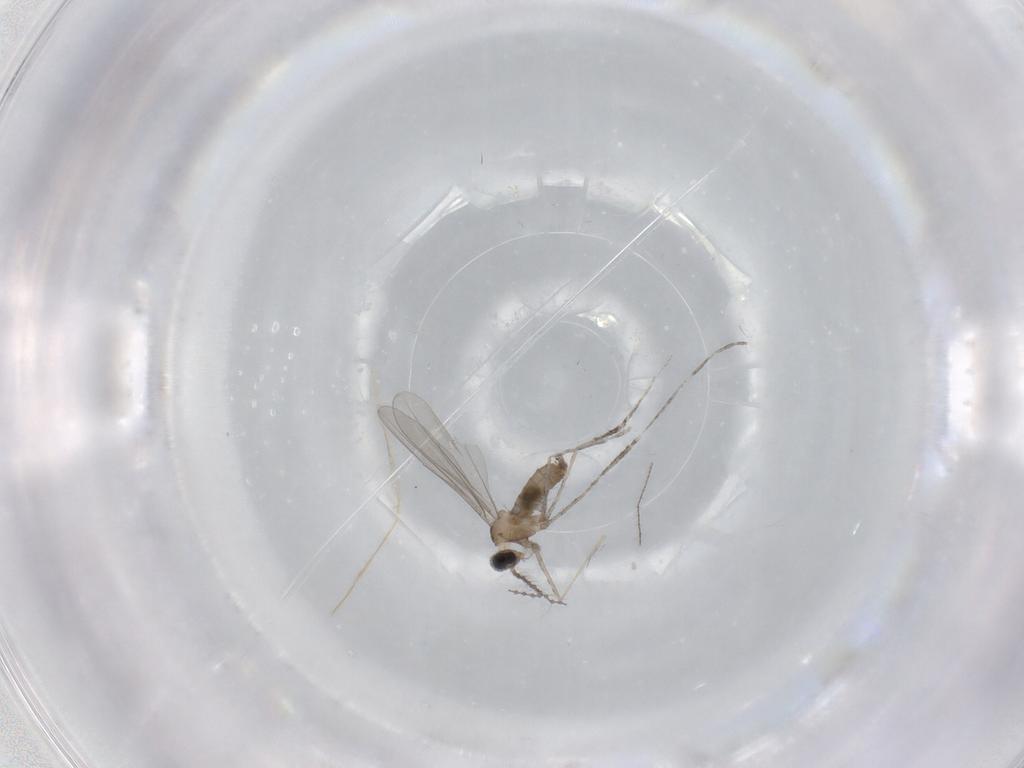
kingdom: Animalia
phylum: Arthropoda
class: Insecta
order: Diptera
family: Cecidomyiidae
